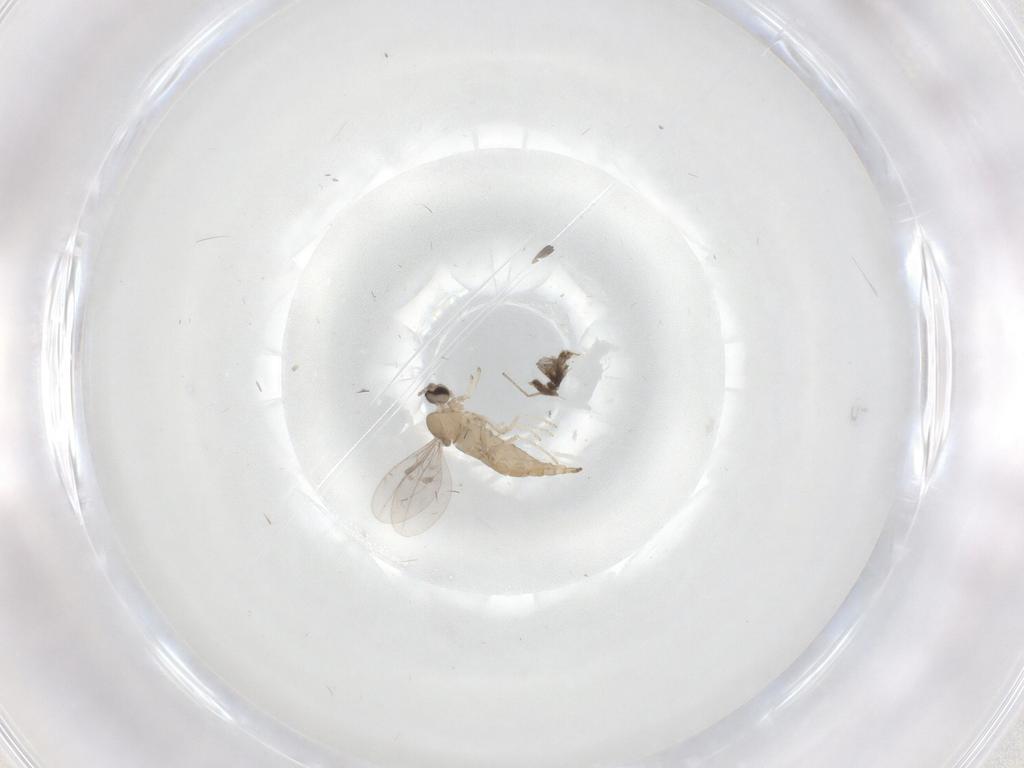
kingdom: Animalia
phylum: Arthropoda
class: Insecta
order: Diptera
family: Cecidomyiidae
